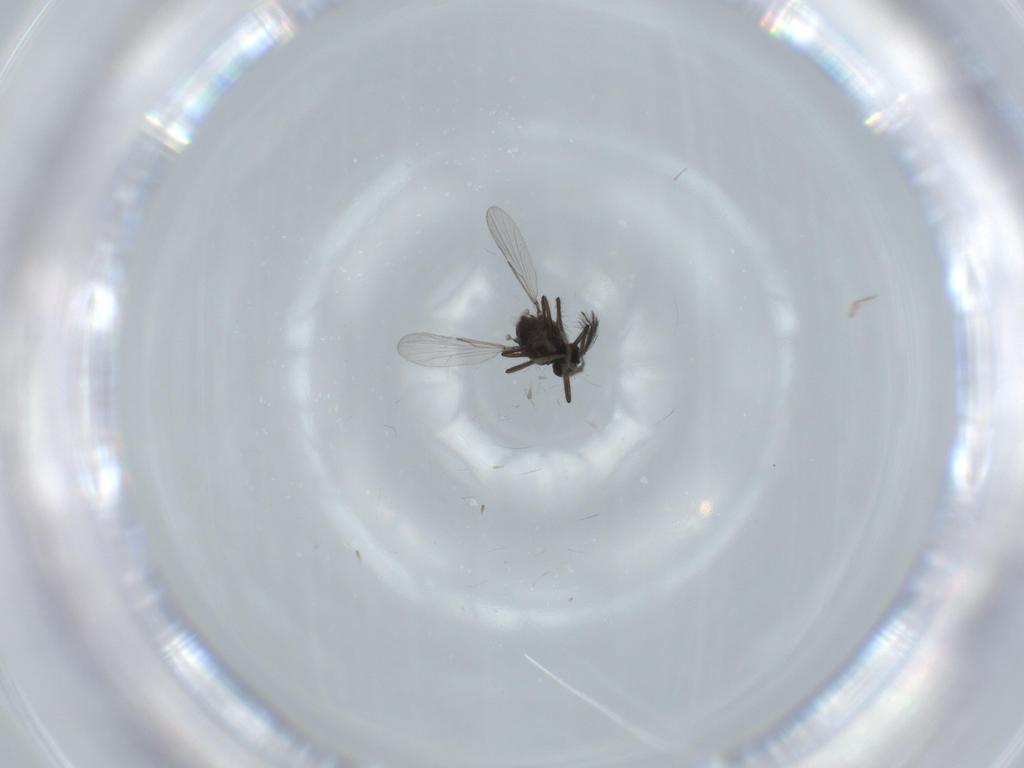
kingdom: Animalia
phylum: Arthropoda
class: Insecta
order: Diptera
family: Ceratopogonidae
